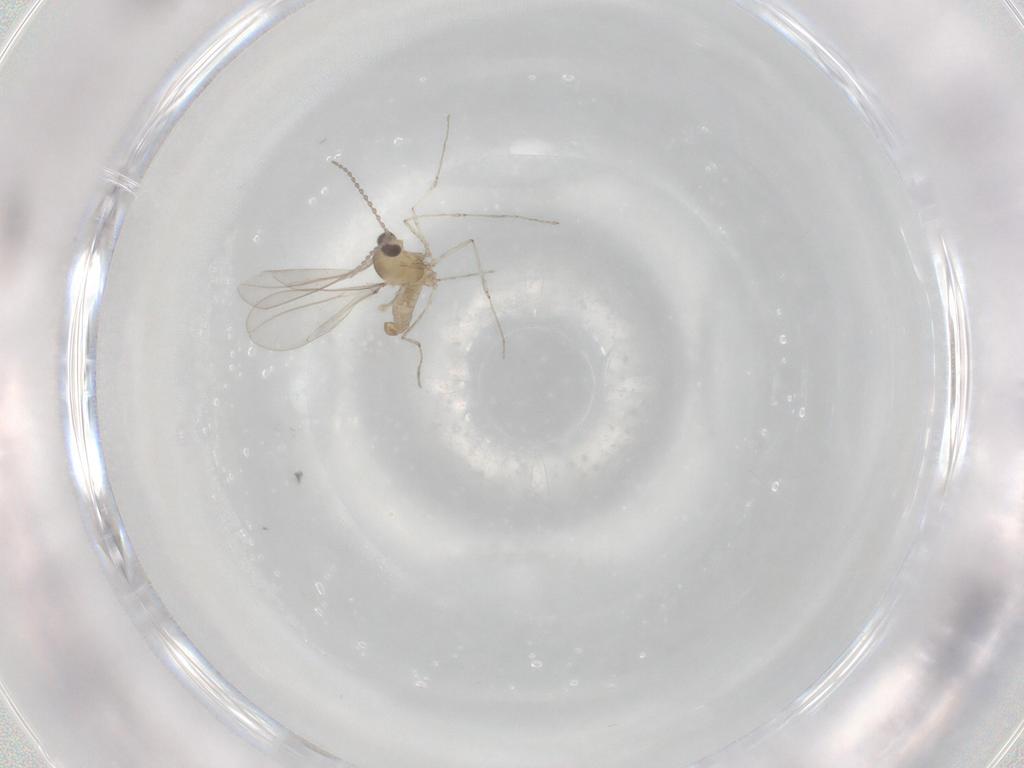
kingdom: Animalia
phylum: Arthropoda
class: Insecta
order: Diptera
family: Cecidomyiidae
